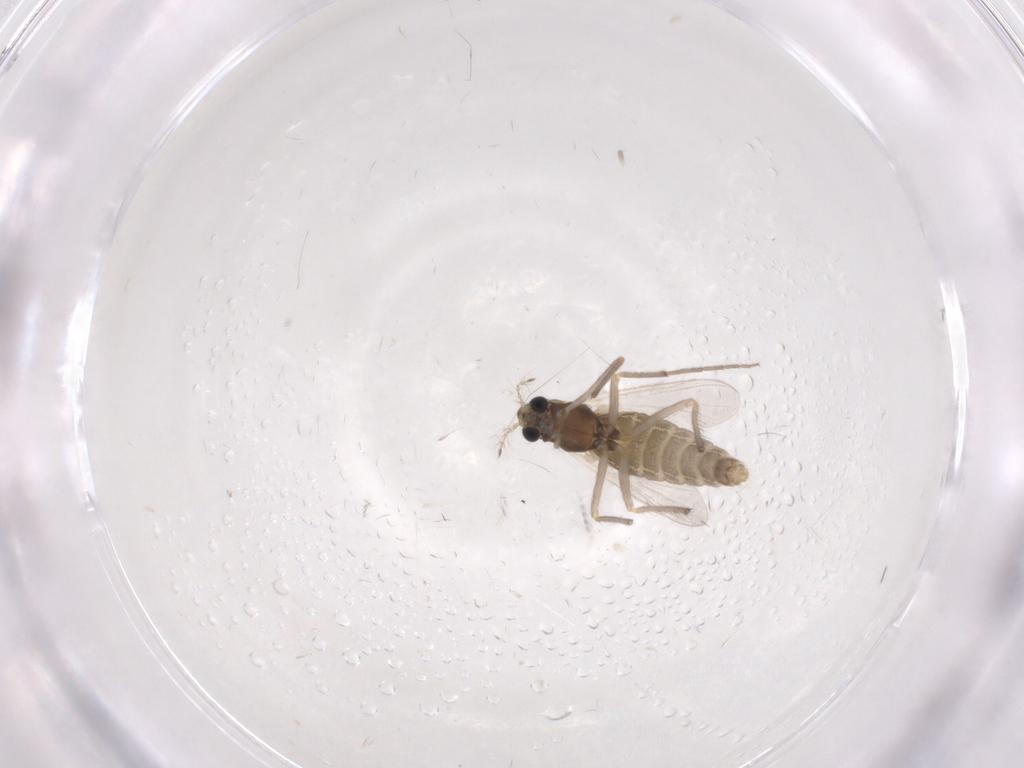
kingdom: Animalia
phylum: Arthropoda
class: Insecta
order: Diptera
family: Chironomidae
